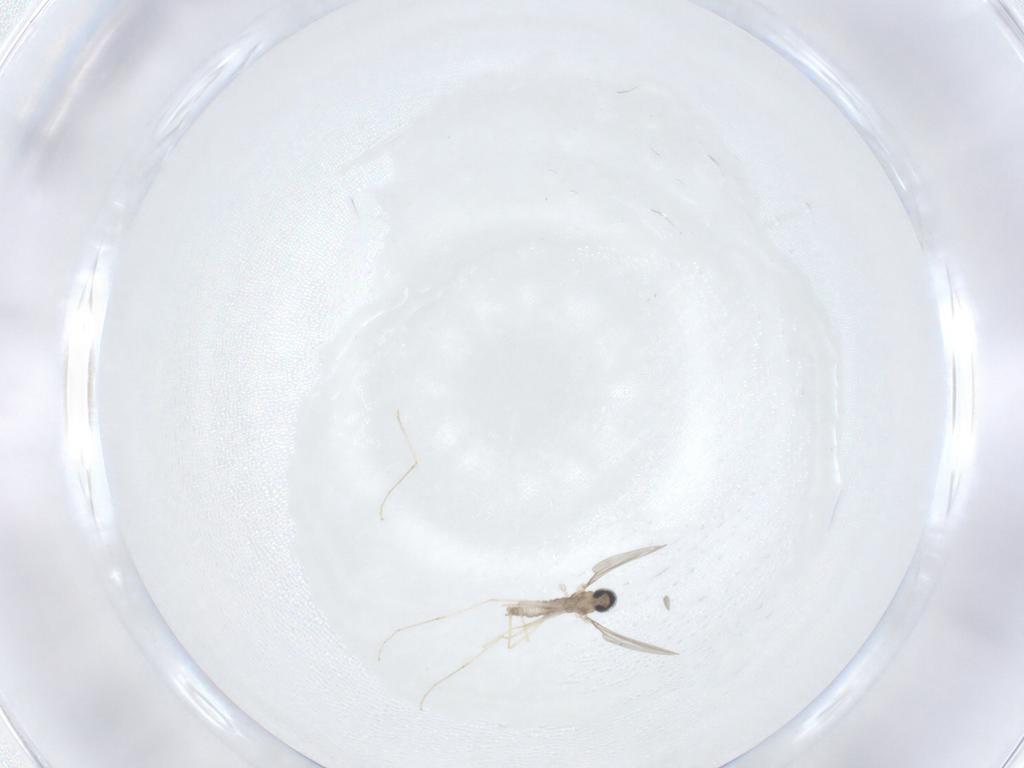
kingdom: Animalia
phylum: Arthropoda
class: Insecta
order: Diptera
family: Cecidomyiidae
